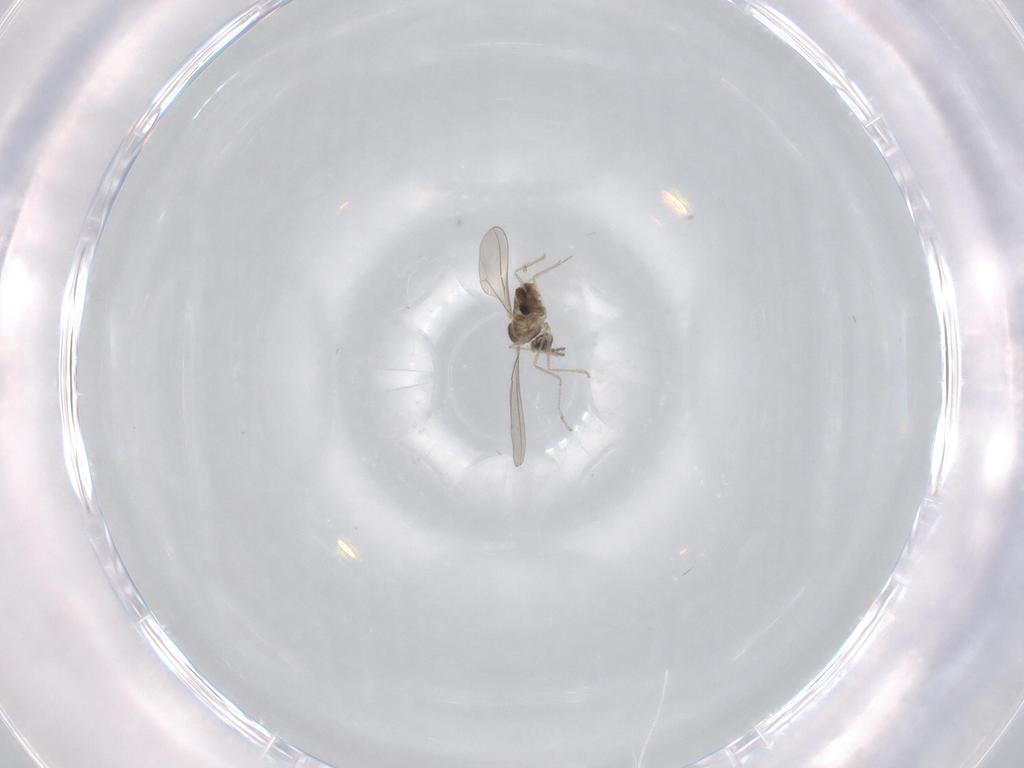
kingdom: Animalia
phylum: Arthropoda
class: Insecta
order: Diptera
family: Ceratopogonidae
